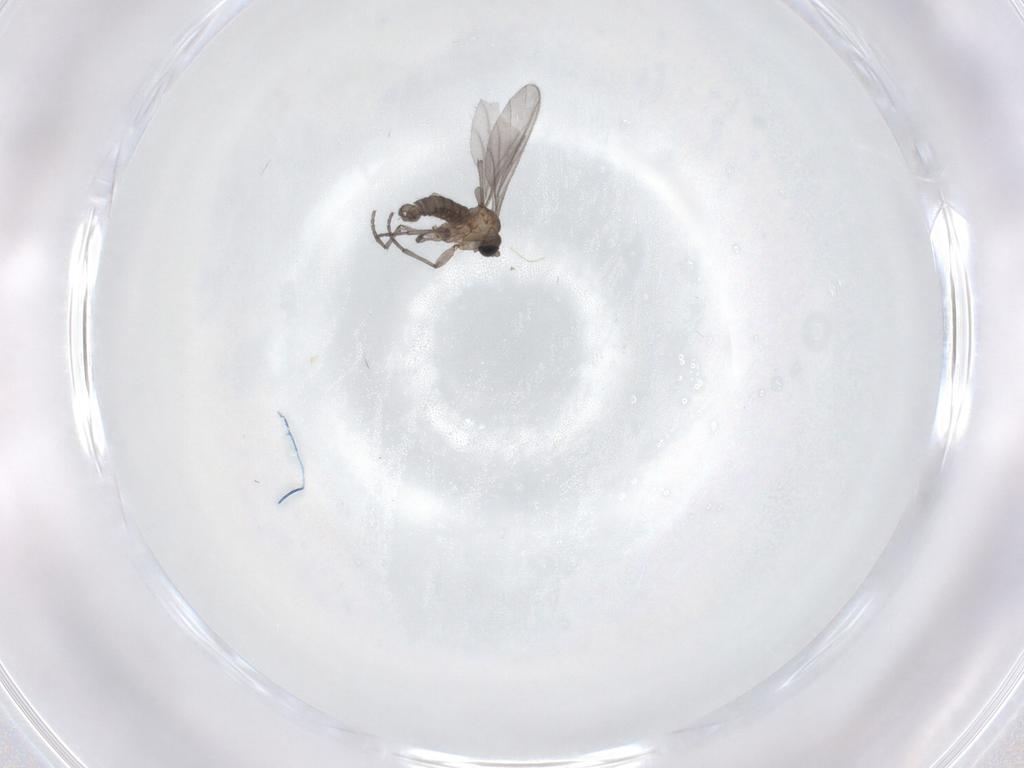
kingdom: Animalia
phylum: Arthropoda
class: Insecta
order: Diptera
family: Sciaridae
